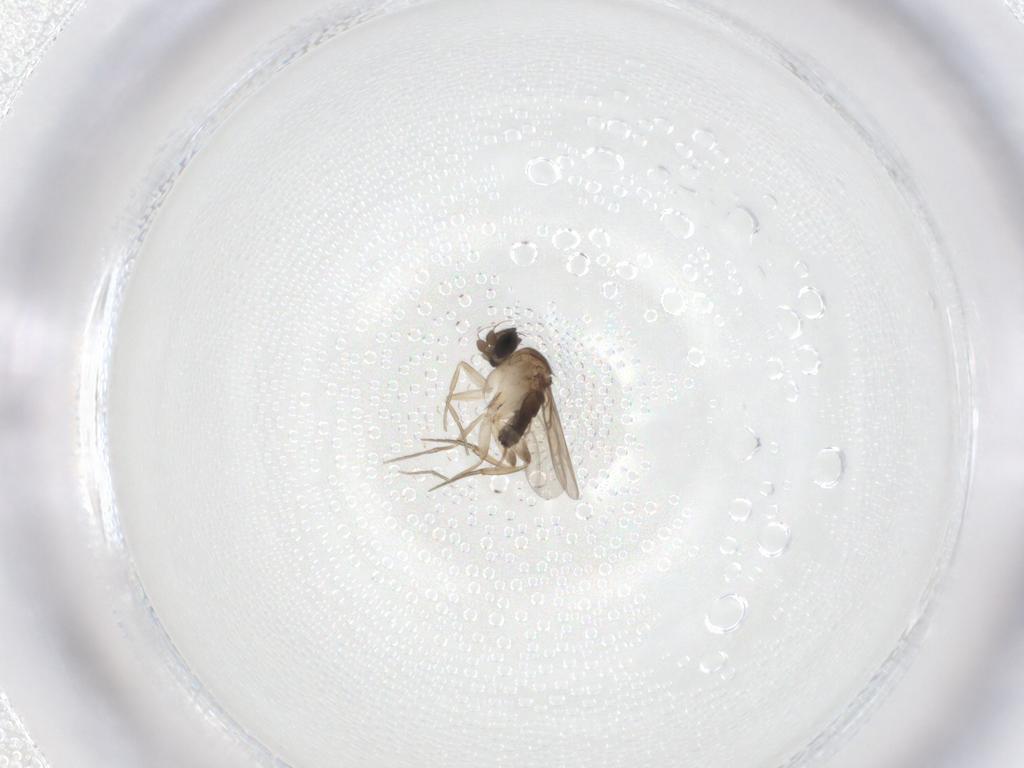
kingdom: Animalia
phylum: Arthropoda
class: Insecta
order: Diptera
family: Phoridae
